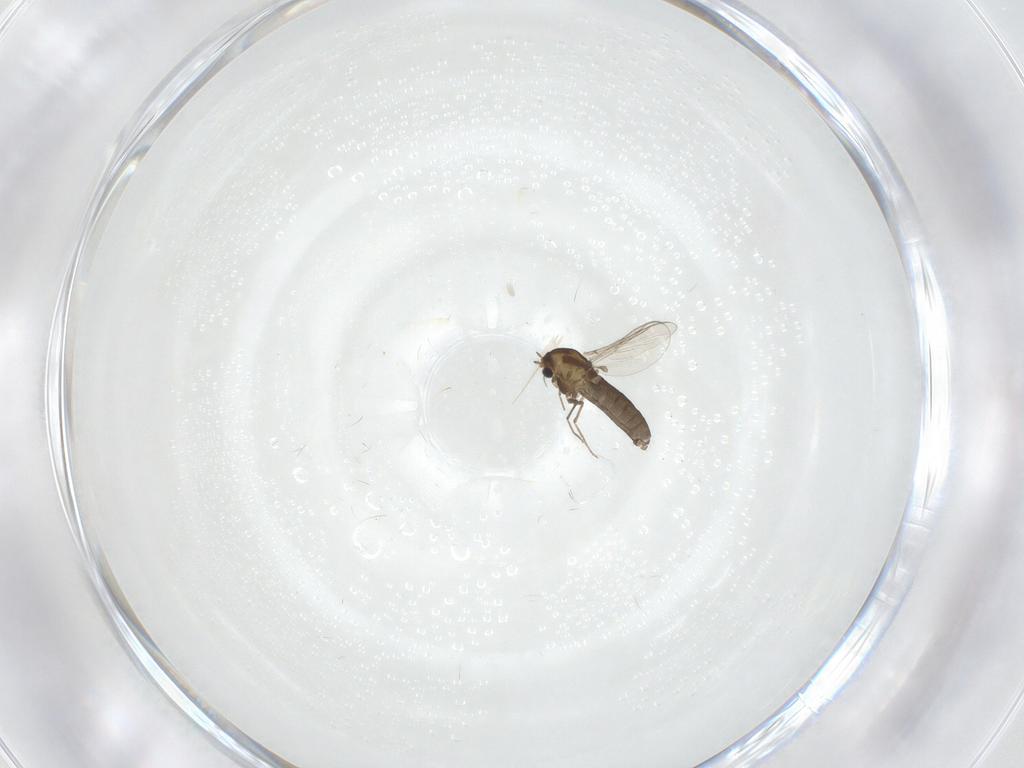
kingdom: Animalia
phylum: Arthropoda
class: Insecta
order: Diptera
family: Chironomidae
